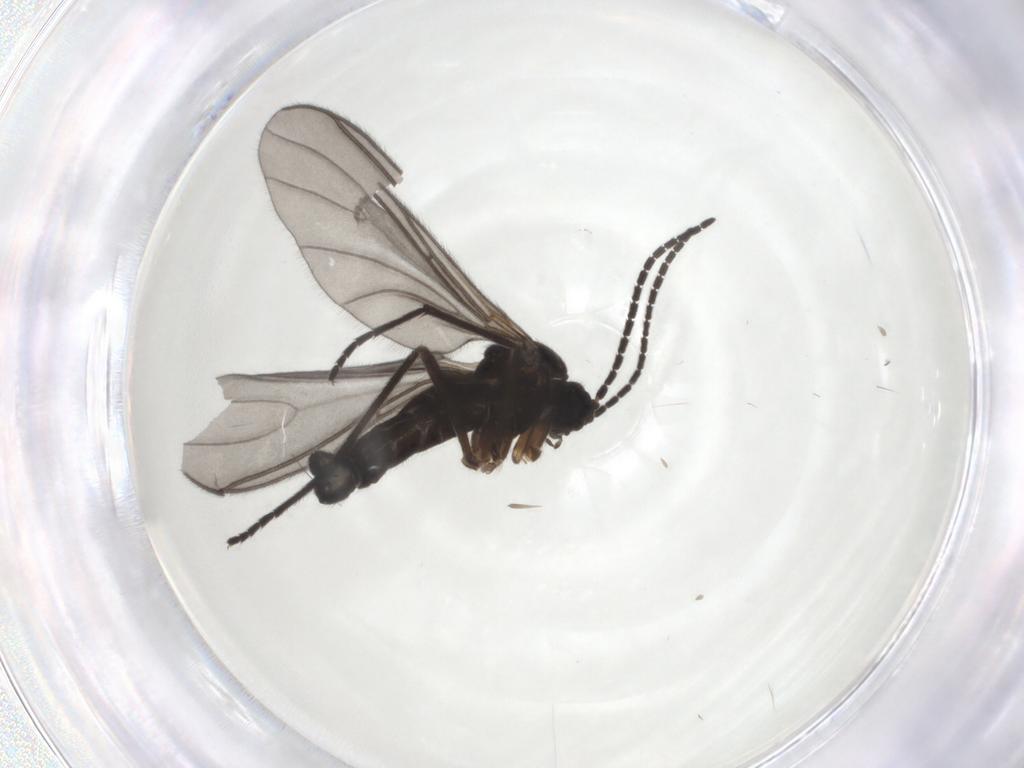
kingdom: Animalia
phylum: Arthropoda
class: Insecta
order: Diptera
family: Sciaridae
